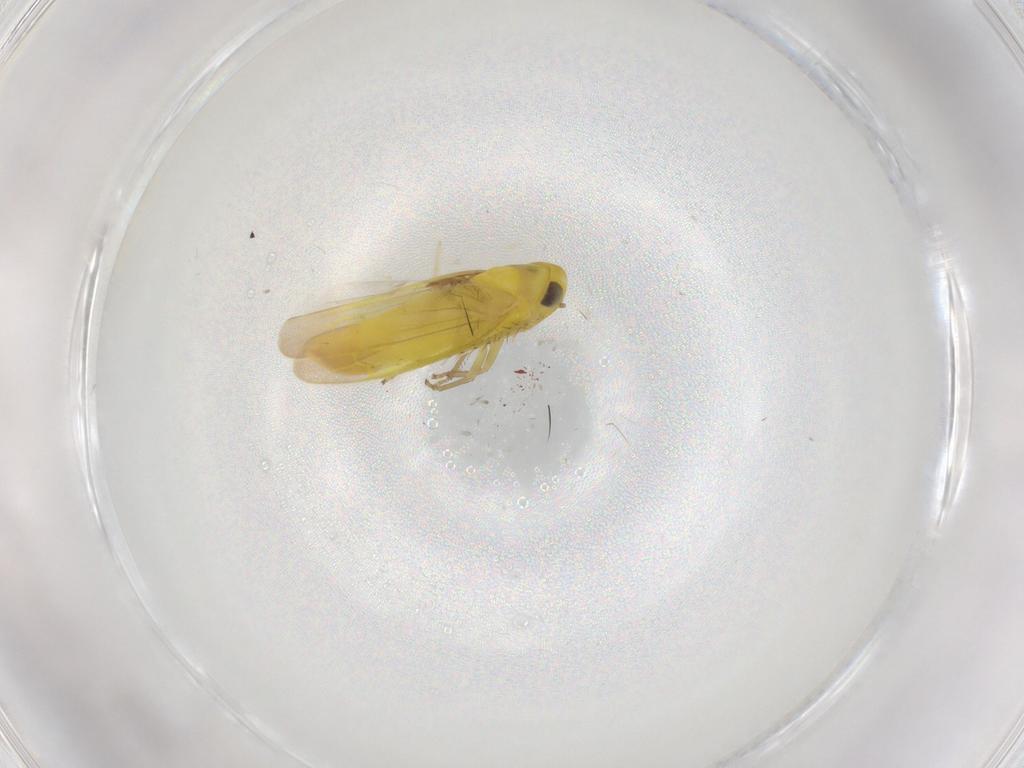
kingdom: Animalia
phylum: Arthropoda
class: Insecta
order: Hemiptera
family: Cicadellidae
